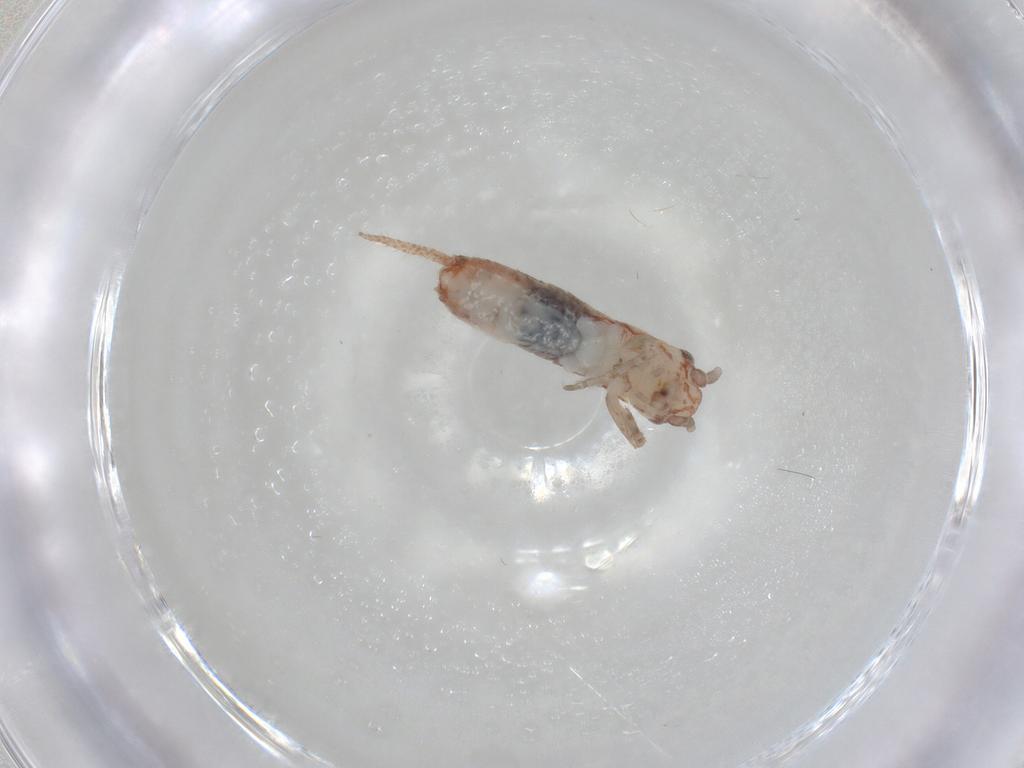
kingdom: Animalia
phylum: Arthropoda
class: Insecta
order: Orthoptera
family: Gryllidae
